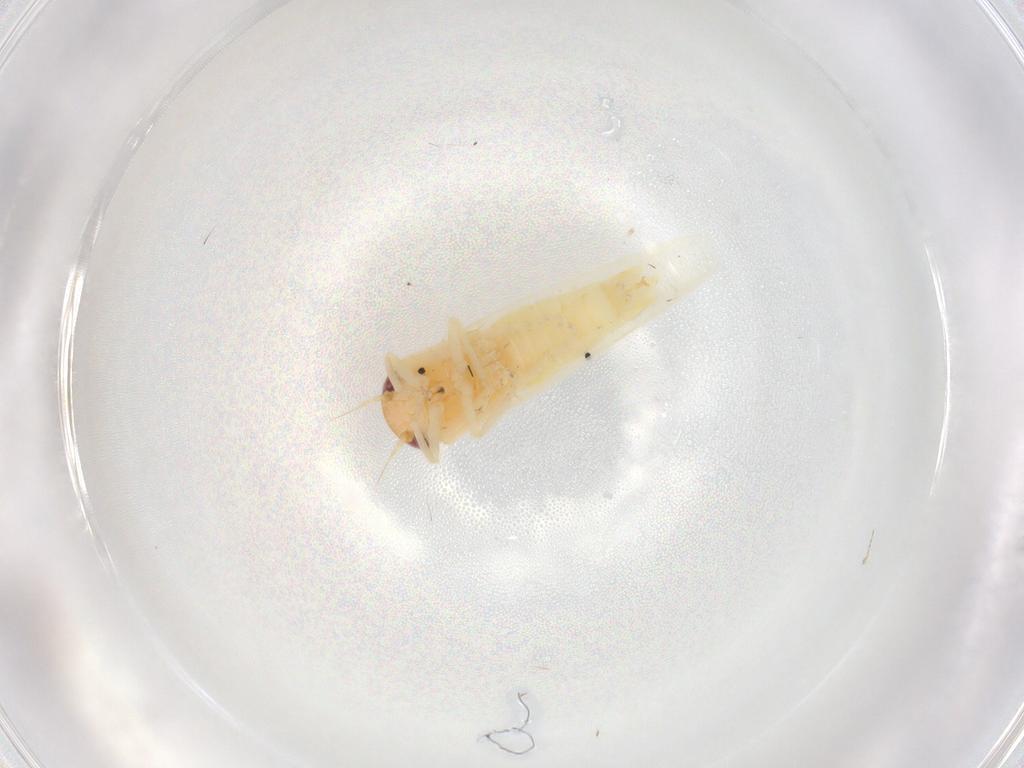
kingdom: Animalia
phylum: Arthropoda
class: Insecta
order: Hemiptera
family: Cicadellidae
